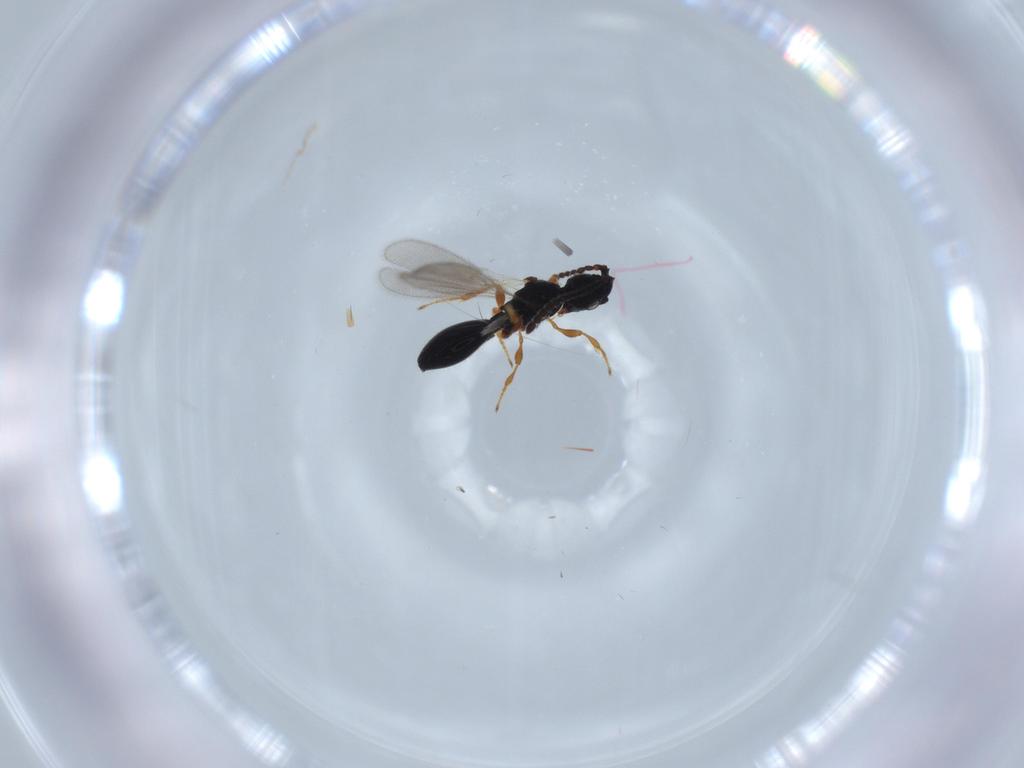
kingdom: Animalia
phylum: Arthropoda
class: Insecta
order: Hymenoptera
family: Diapriidae
